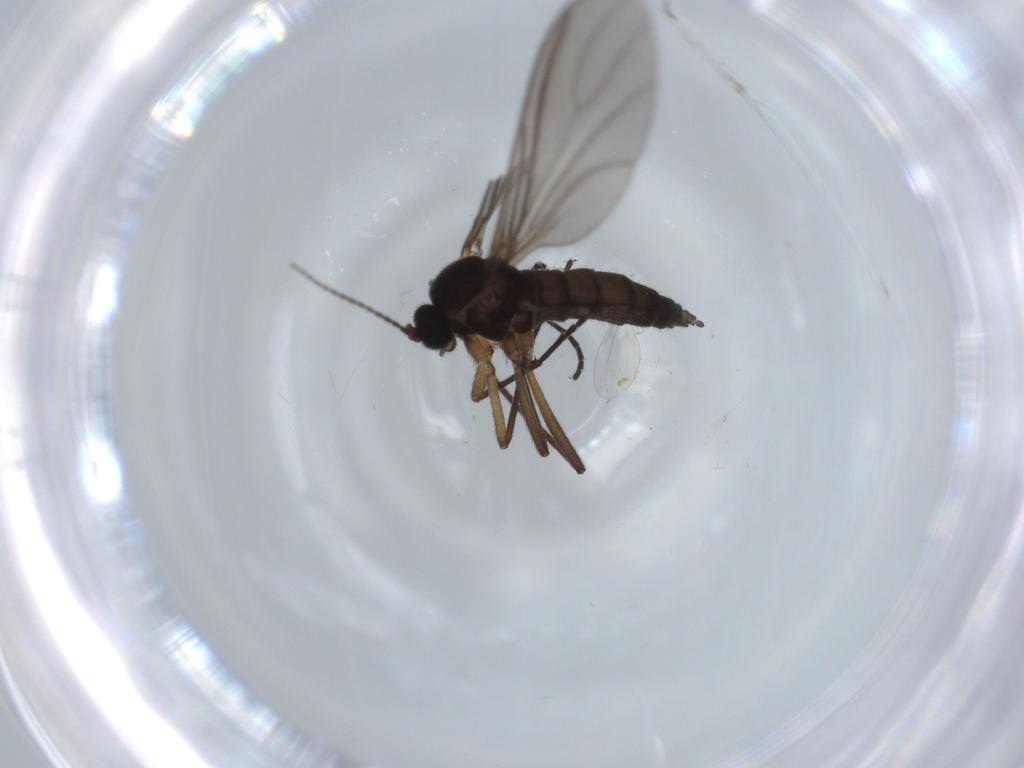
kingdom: Animalia
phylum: Arthropoda
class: Insecta
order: Diptera
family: Sciaridae
